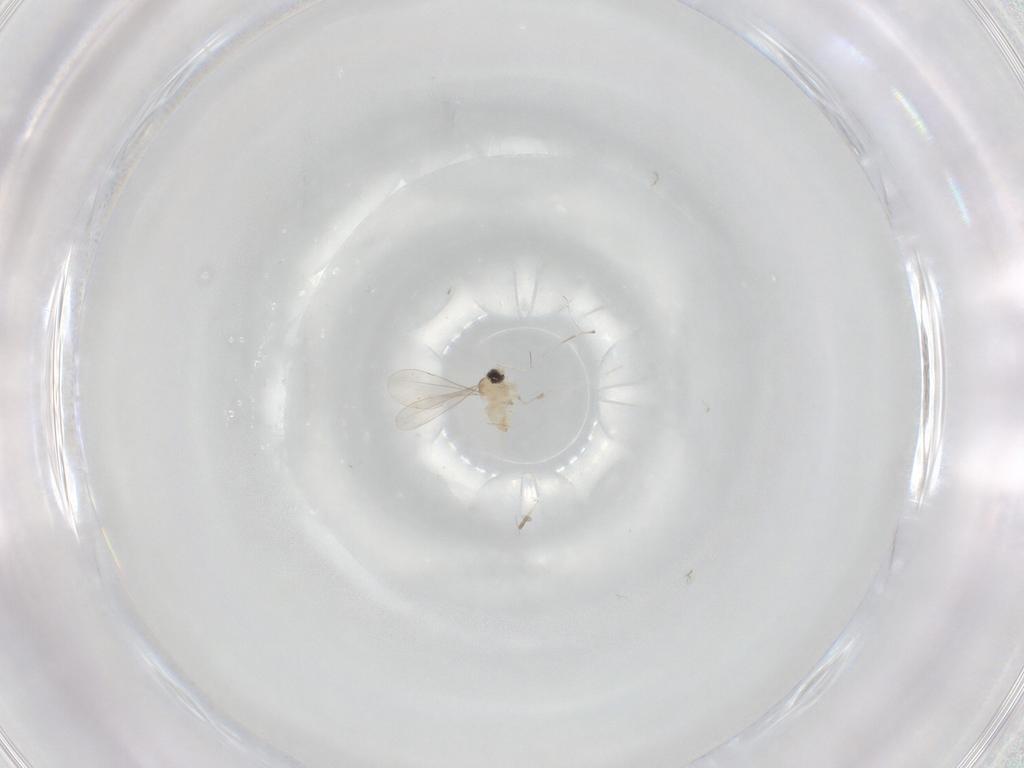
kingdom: Animalia
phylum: Arthropoda
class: Insecta
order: Diptera
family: Cecidomyiidae
